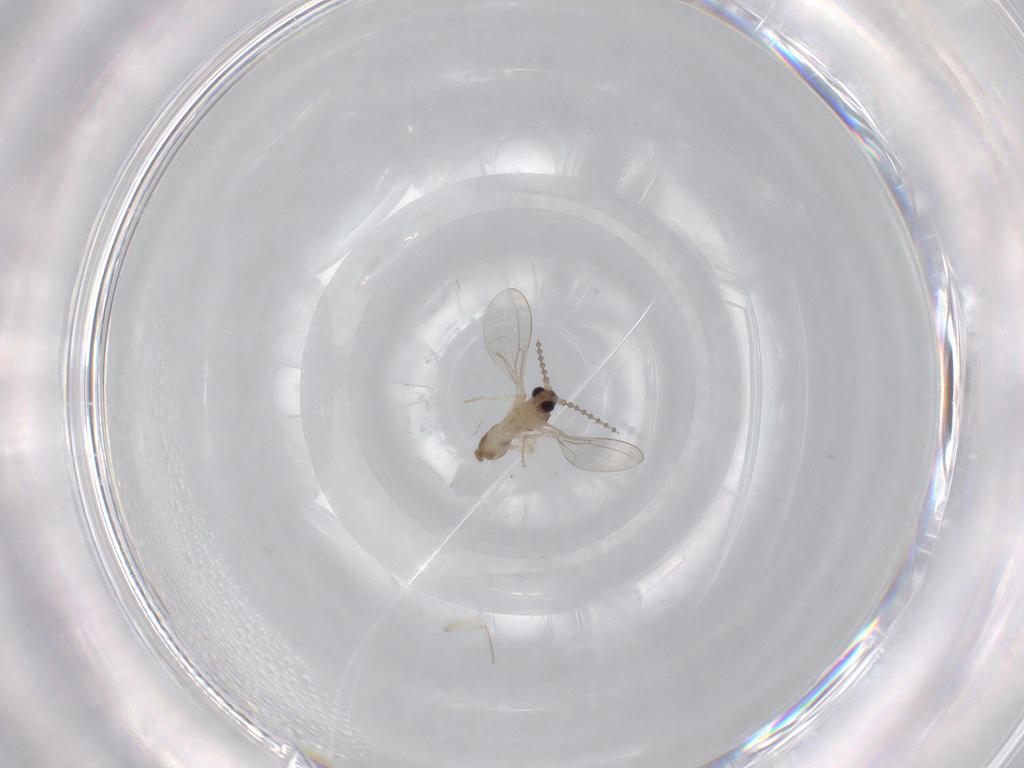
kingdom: Animalia
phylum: Arthropoda
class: Insecta
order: Diptera
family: Cecidomyiidae
